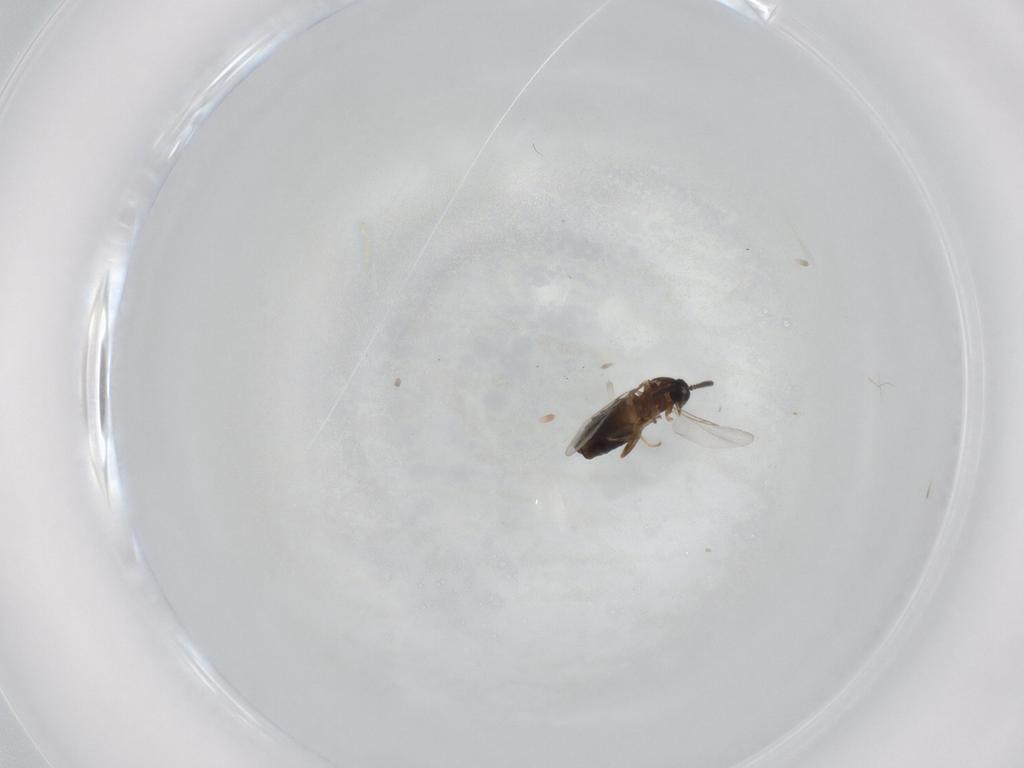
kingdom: Animalia
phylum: Arthropoda
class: Insecta
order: Diptera
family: Scatopsidae
